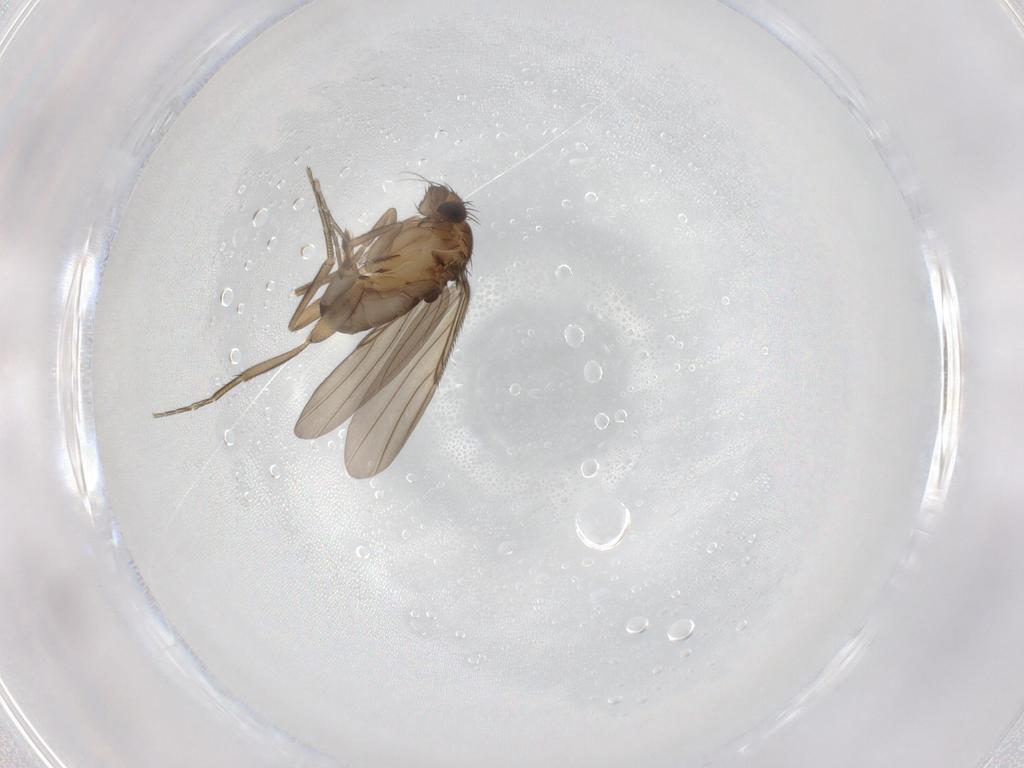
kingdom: Animalia
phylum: Arthropoda
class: Insecta
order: Diptera
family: Phoridae
